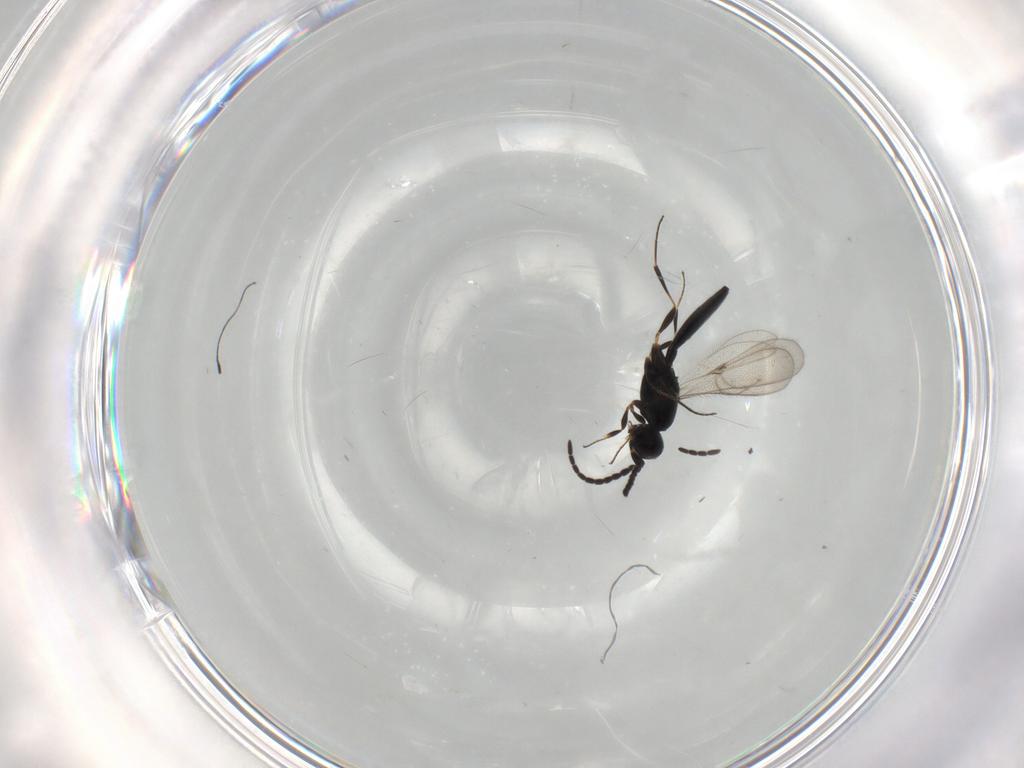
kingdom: Animalia
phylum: Arthropoda
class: Insecta
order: Hymenoptera
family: Scelionidae
